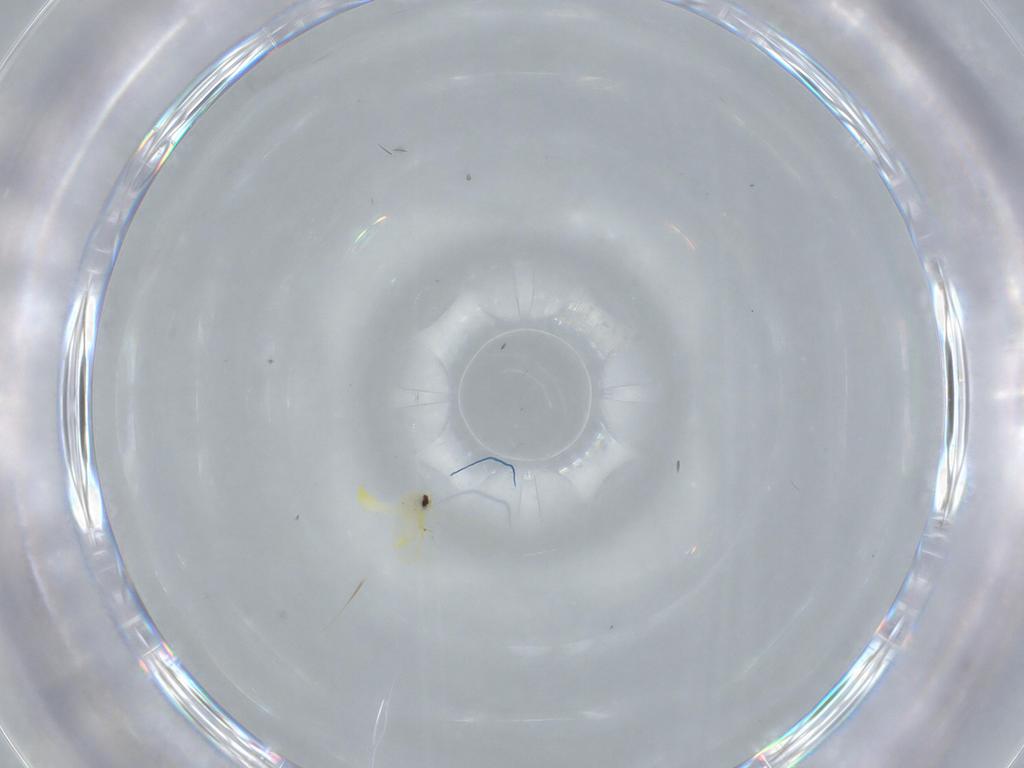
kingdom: Animalia
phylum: Arthropoda
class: Insecta
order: Hemiptera
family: Aleyrodidae
